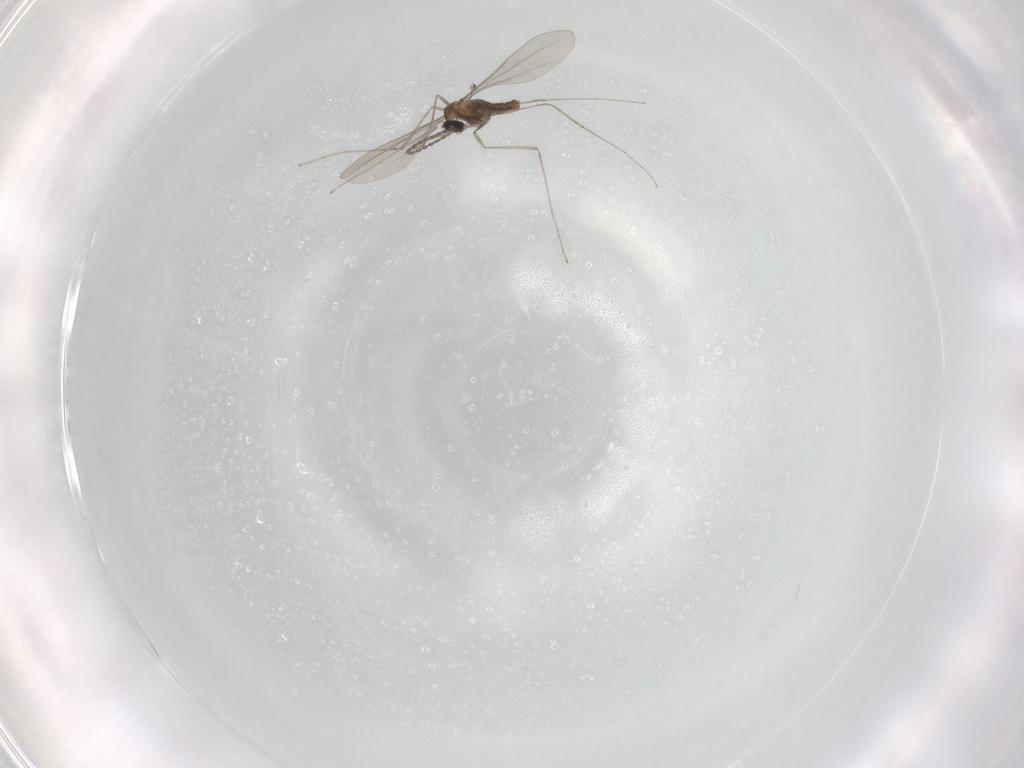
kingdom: Animalia
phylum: Arthropoda
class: Insecta
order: Diptera
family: Cecidomyiidae
